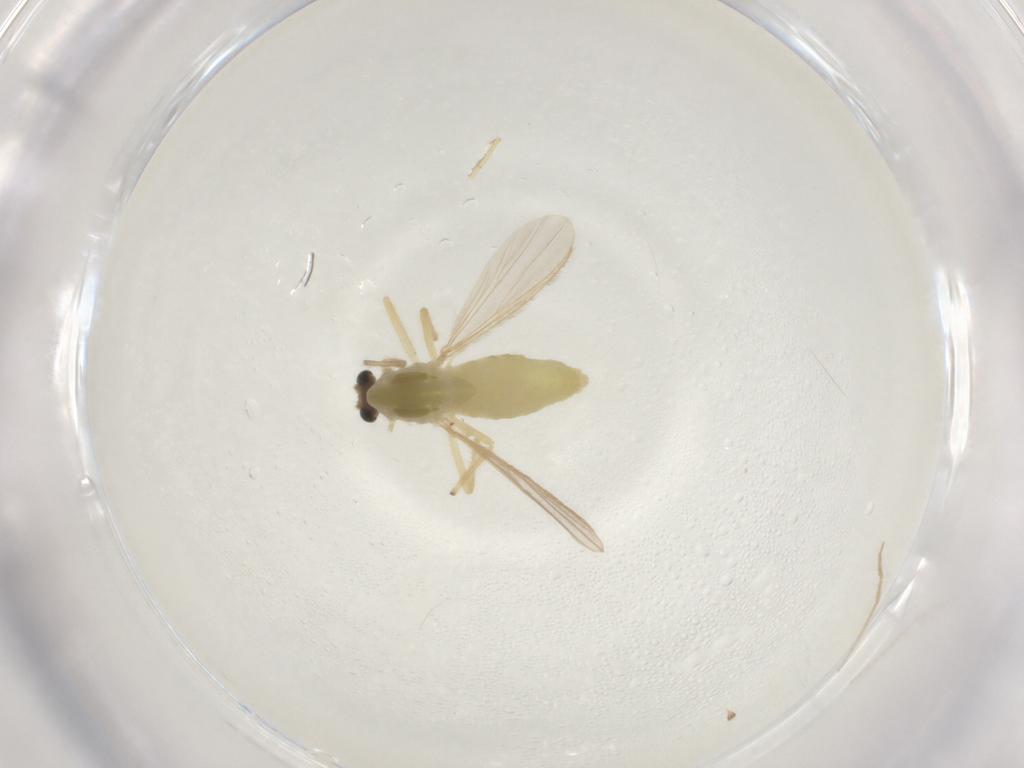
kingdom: Animalia
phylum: Arthropoda
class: Insecta
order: Diptera
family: Chironomidae
